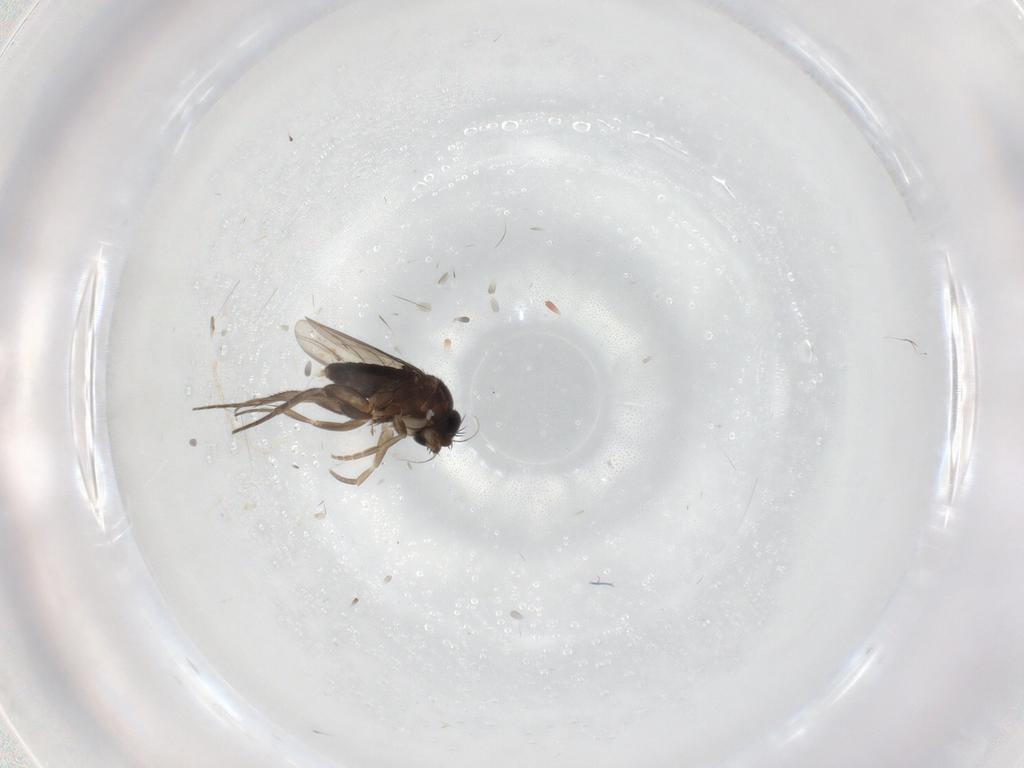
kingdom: Animalia
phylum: Arthropoda
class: Insecta
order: Diptera
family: Phoridae
